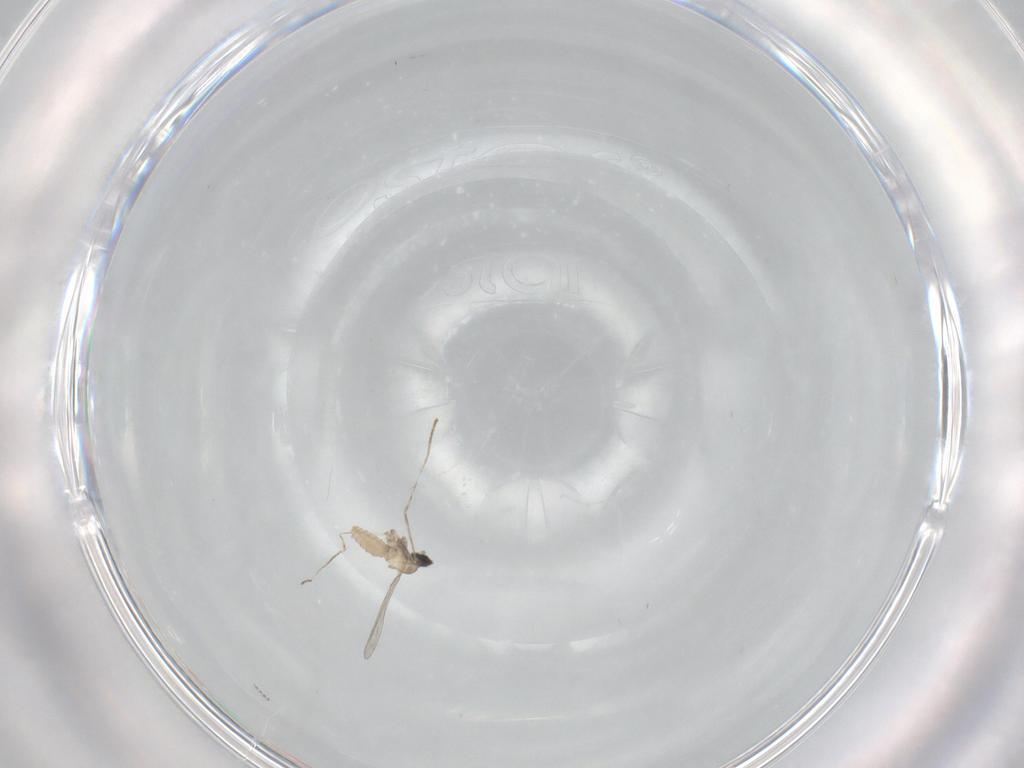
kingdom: Animalia
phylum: Arthropoda
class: Insecta
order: Diptera
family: Cecidomyiidae
